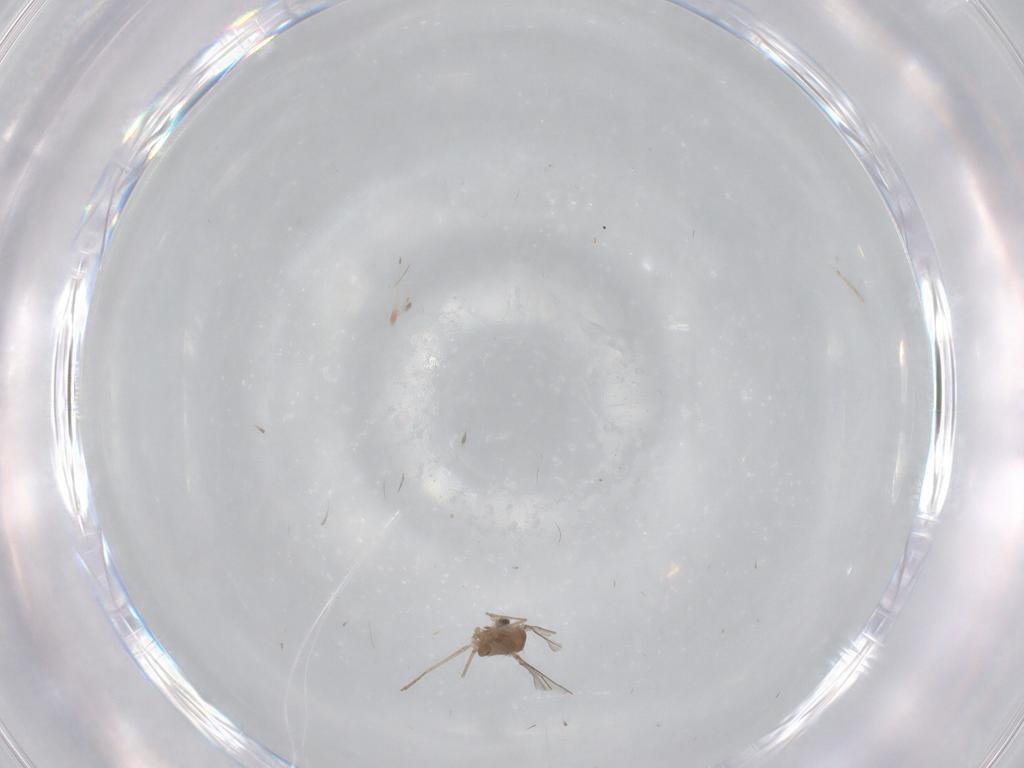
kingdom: Animalia
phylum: Arthropoda
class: Insecta
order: Diptera
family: Cecidomyiidae
